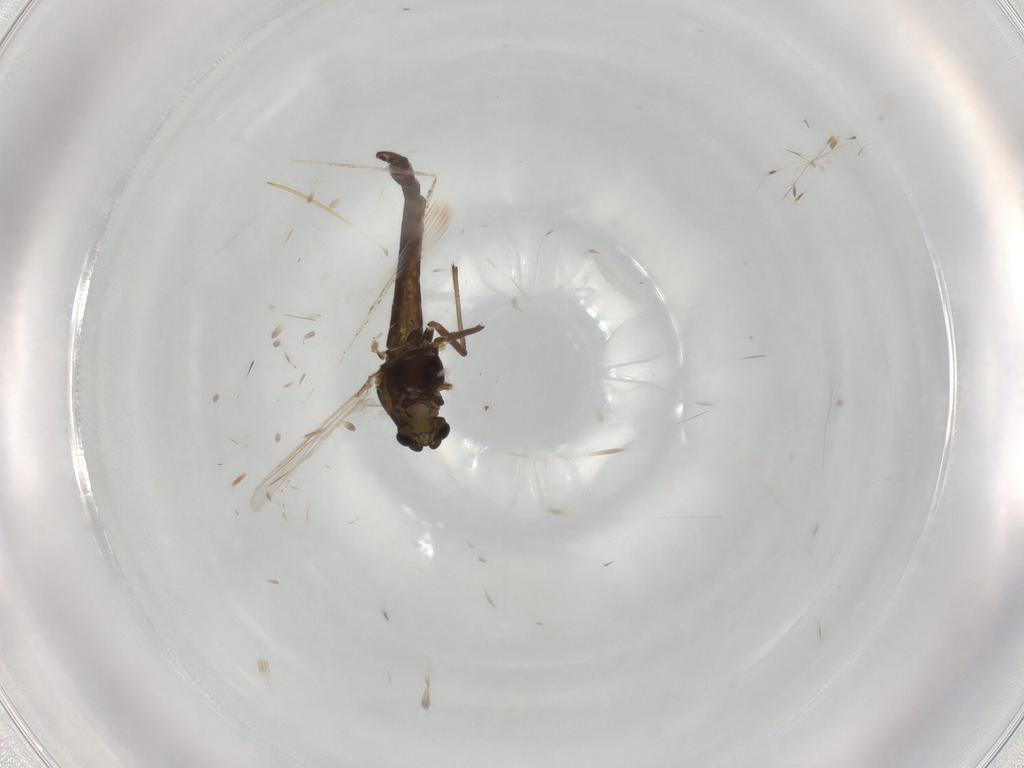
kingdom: Animalia
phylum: Arthropoda
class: Insecta
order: Diptera
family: Chironomidae
